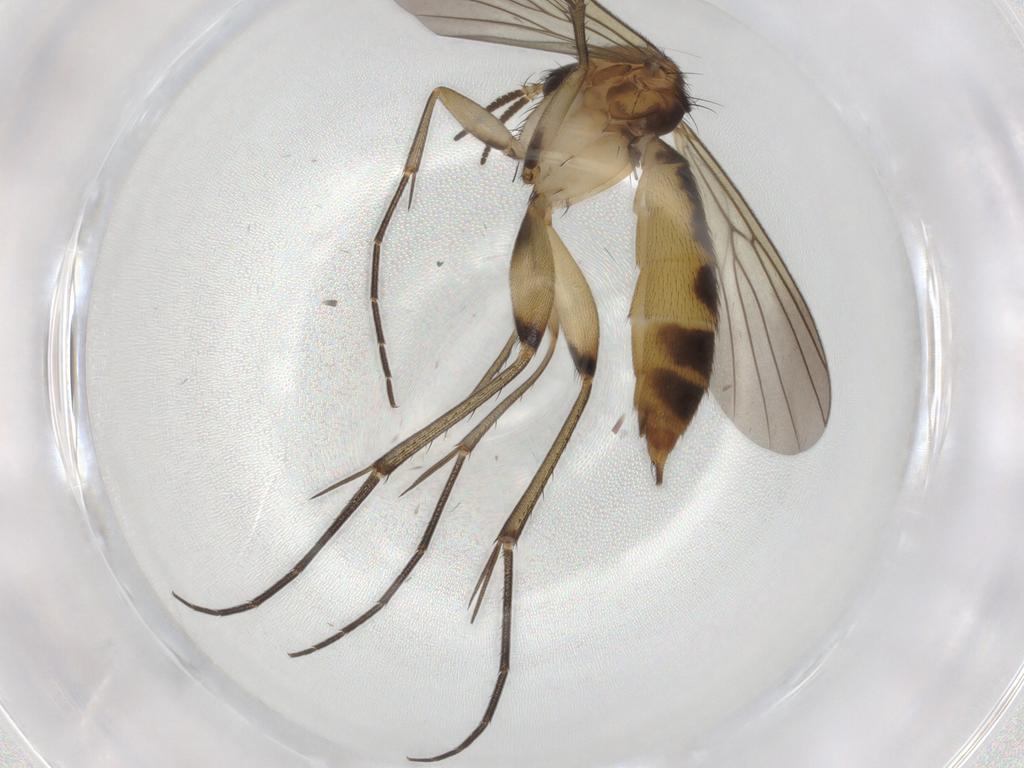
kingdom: Animalia
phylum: Arthropoda
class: Insecta
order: Diptera
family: Mycetophilidae
